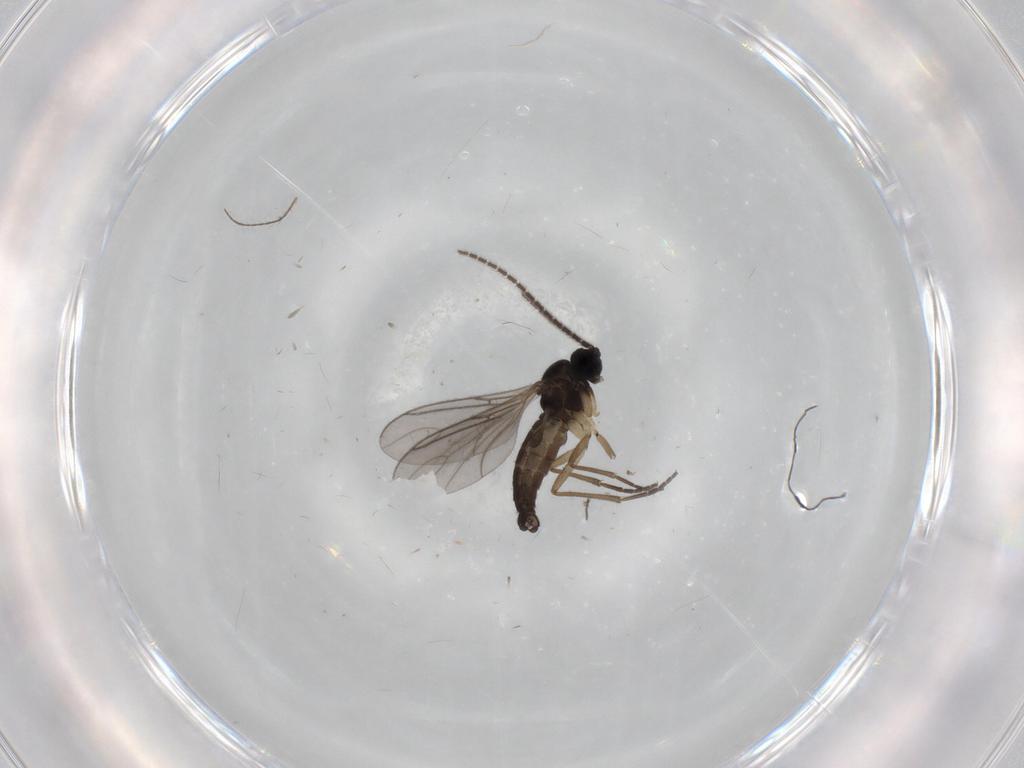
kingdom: Animalia
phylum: Arthropoda
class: Insecta
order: Diptera
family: Sciaridae
